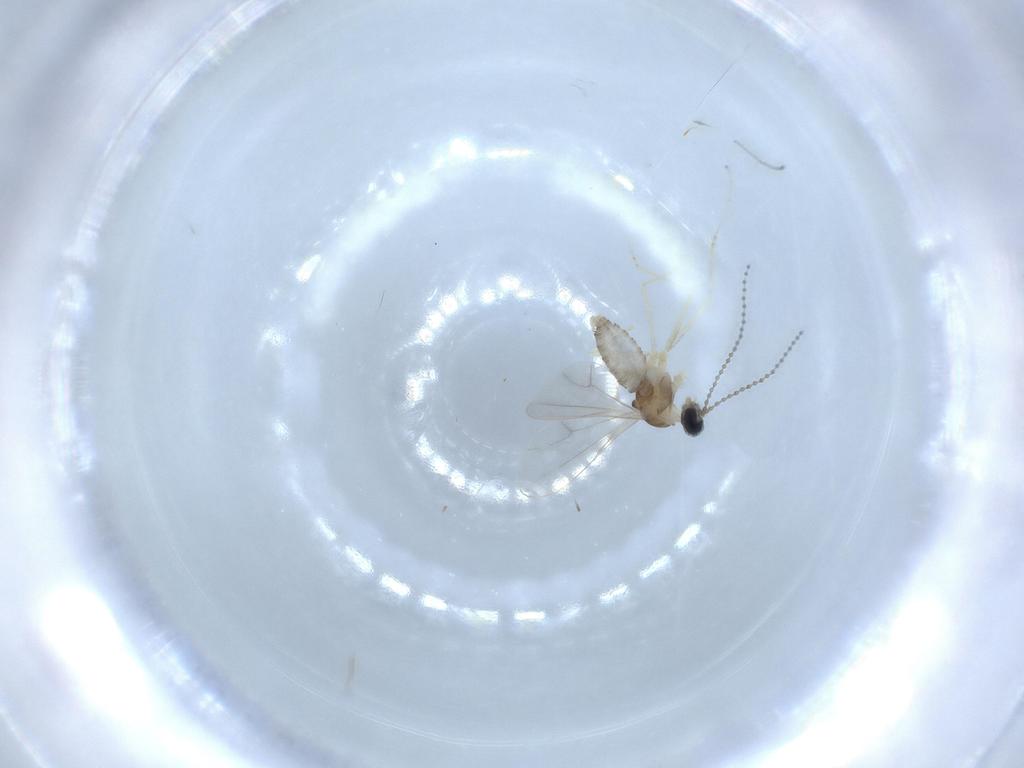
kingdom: Animalia
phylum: Arthropoda
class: Insecta
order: Diptera
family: Cecidomyiidae
